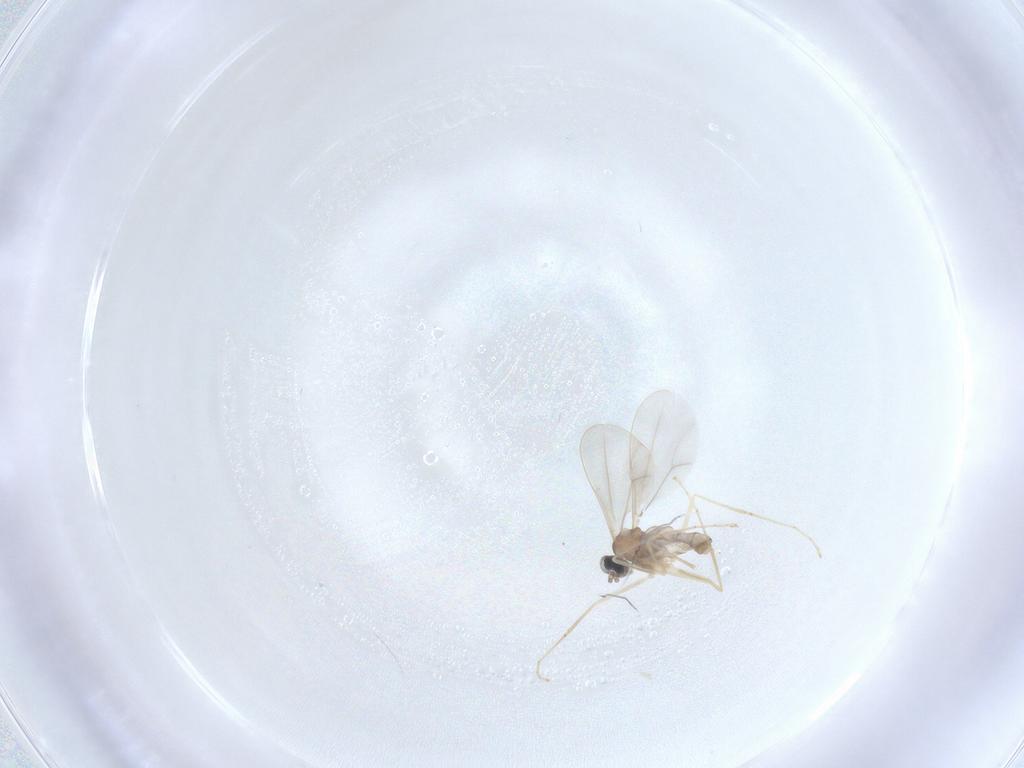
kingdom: Animalia
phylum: Arthropoda
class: Insecta
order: Diptera
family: Cecidomyiidae
